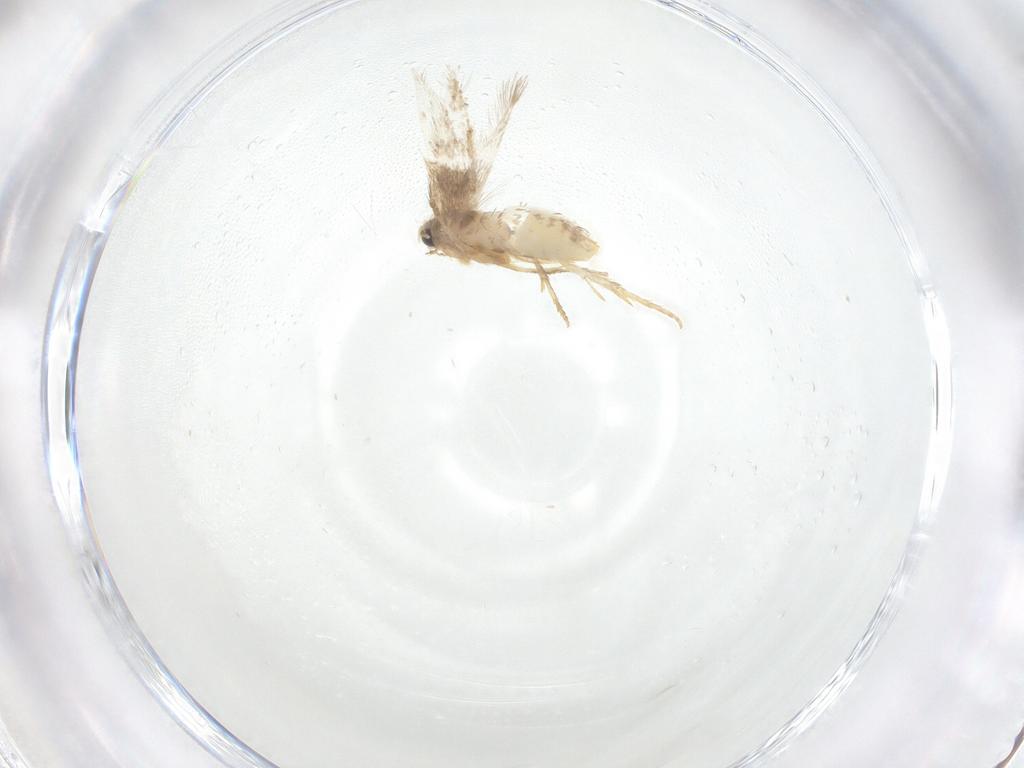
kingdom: Animalia
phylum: Arthropoda
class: Insecta
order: Lepidoptera
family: Nepticulidae
